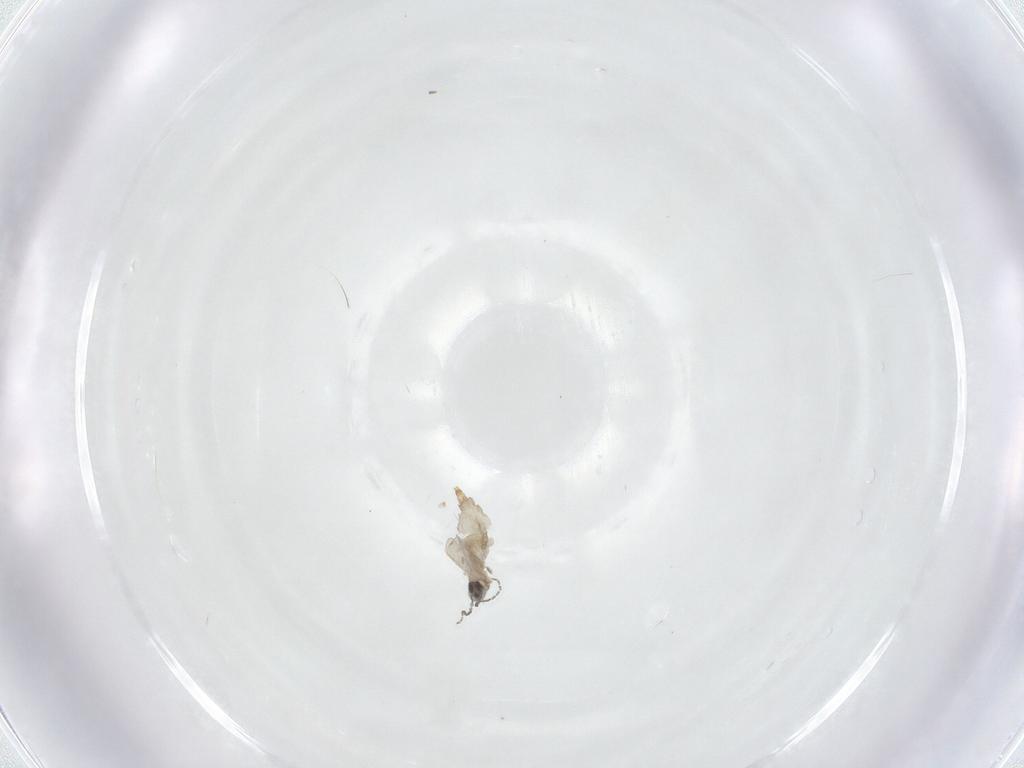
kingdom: Animalia
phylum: Arthropoda
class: Insecta
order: Diptera
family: Cecidomyiidae
